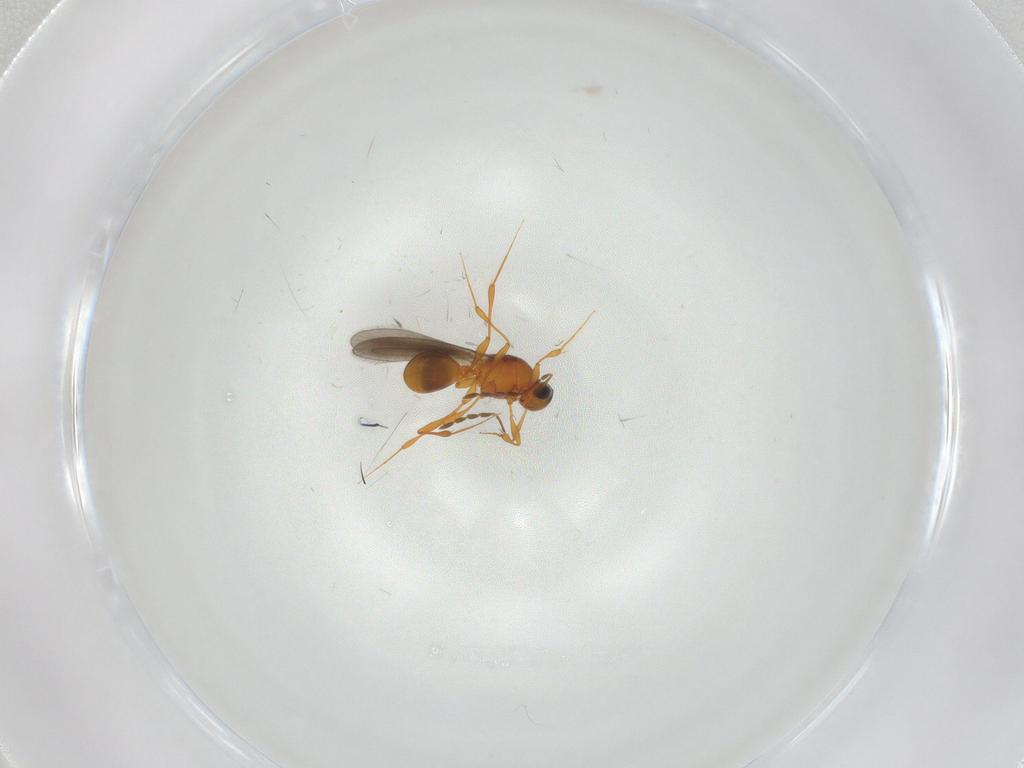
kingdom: Animalia
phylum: Arthropoda
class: Insecta
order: Hymenoptera
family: Platygastridae
